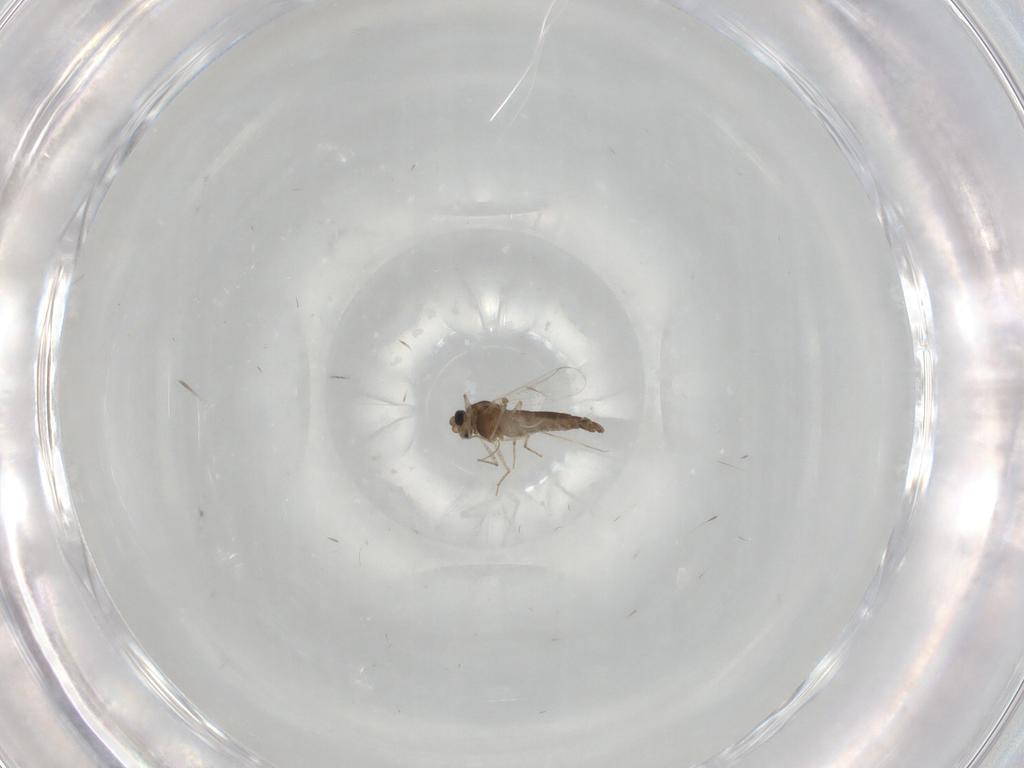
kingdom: Animalia
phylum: Arthropoda
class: Insecta
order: Diptera
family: Chironomidae
